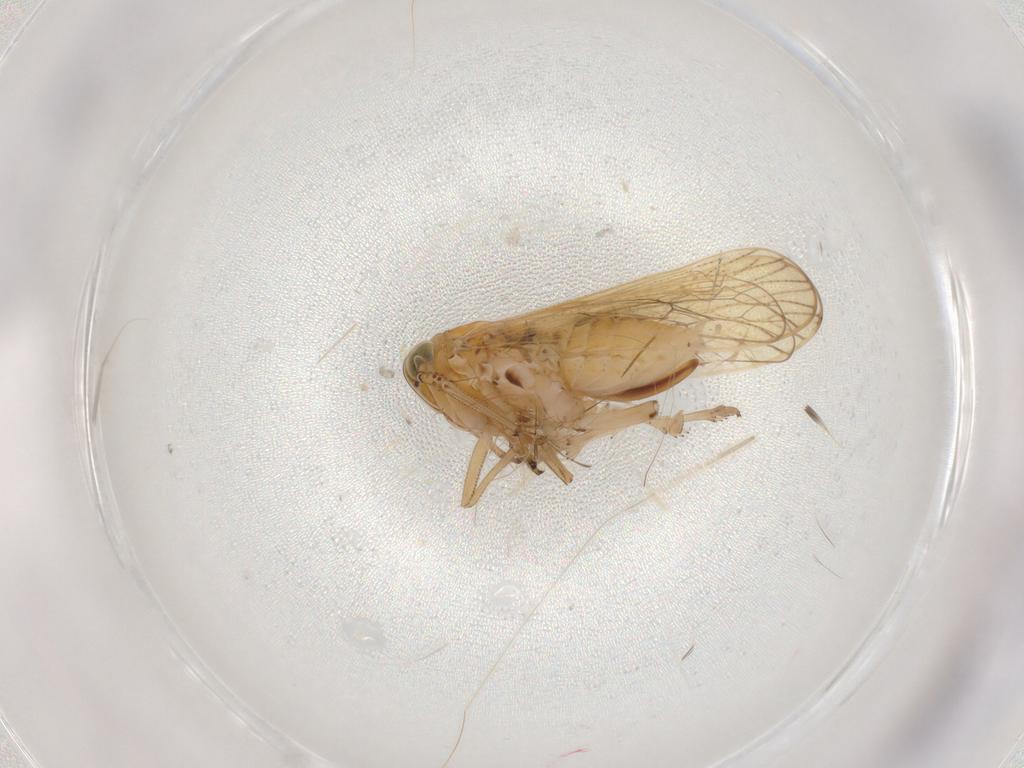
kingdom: Animalia
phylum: Arthropoda
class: Insecta
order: Hemiptera
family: Delphacidae
